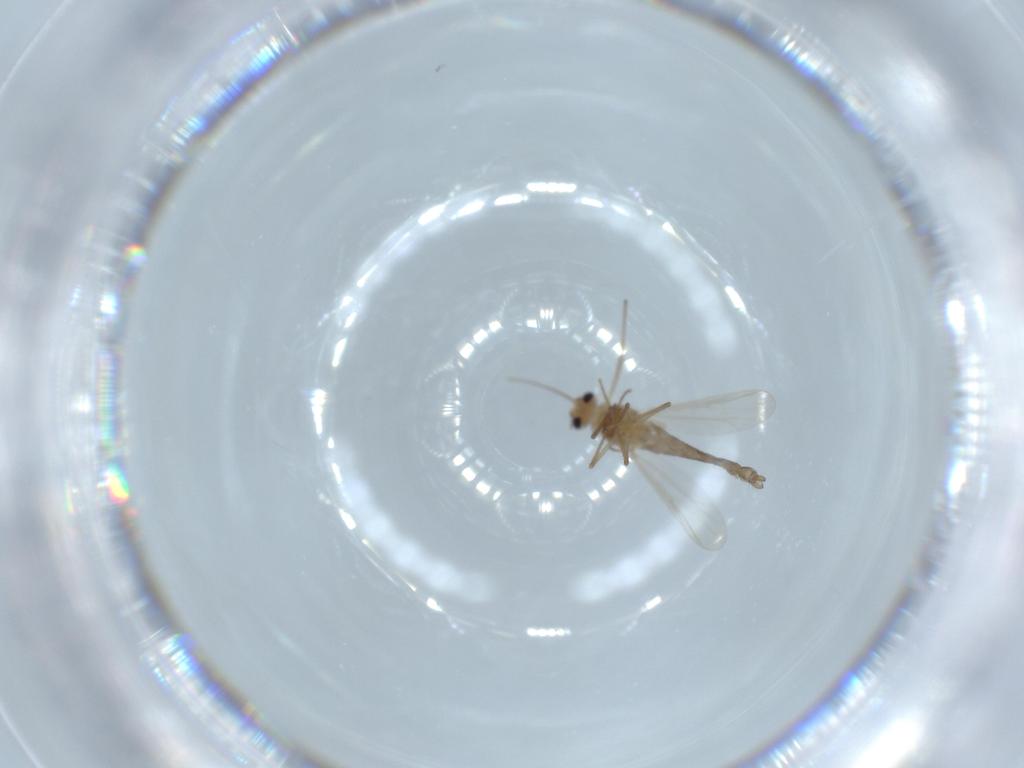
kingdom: Animalia
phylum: Arthropoda
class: Insecta
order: Diptera
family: Chironomidae
